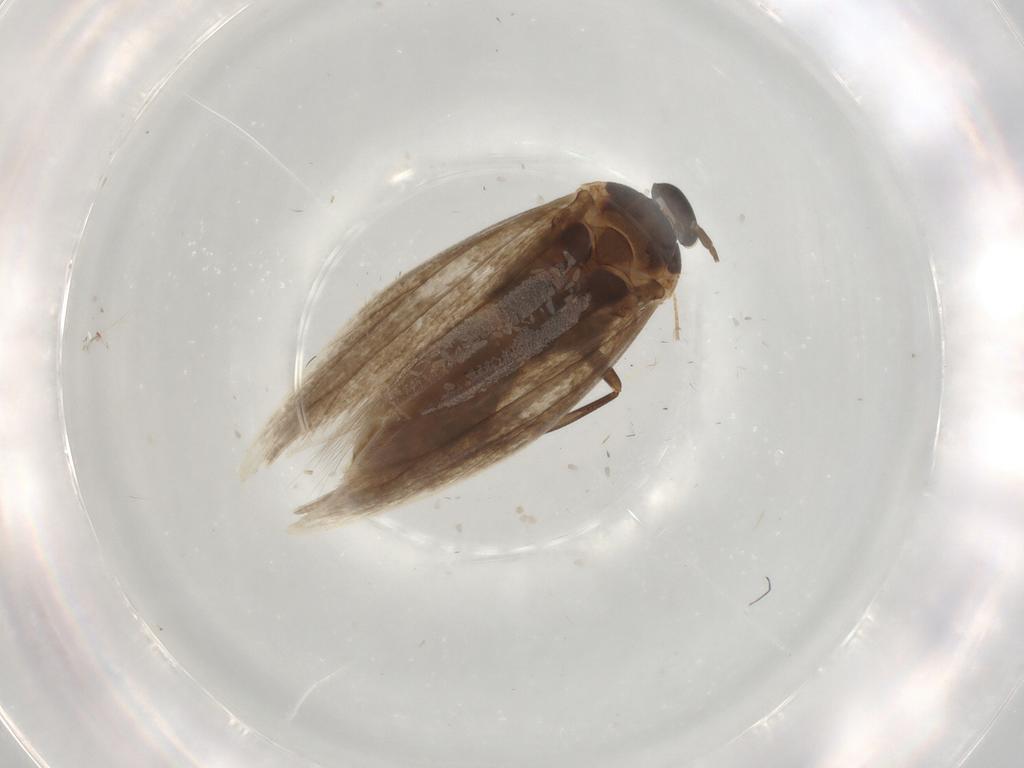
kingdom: Animalia
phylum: Arthropoda
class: Insecta
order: Lepidoptera
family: Elachistidae
